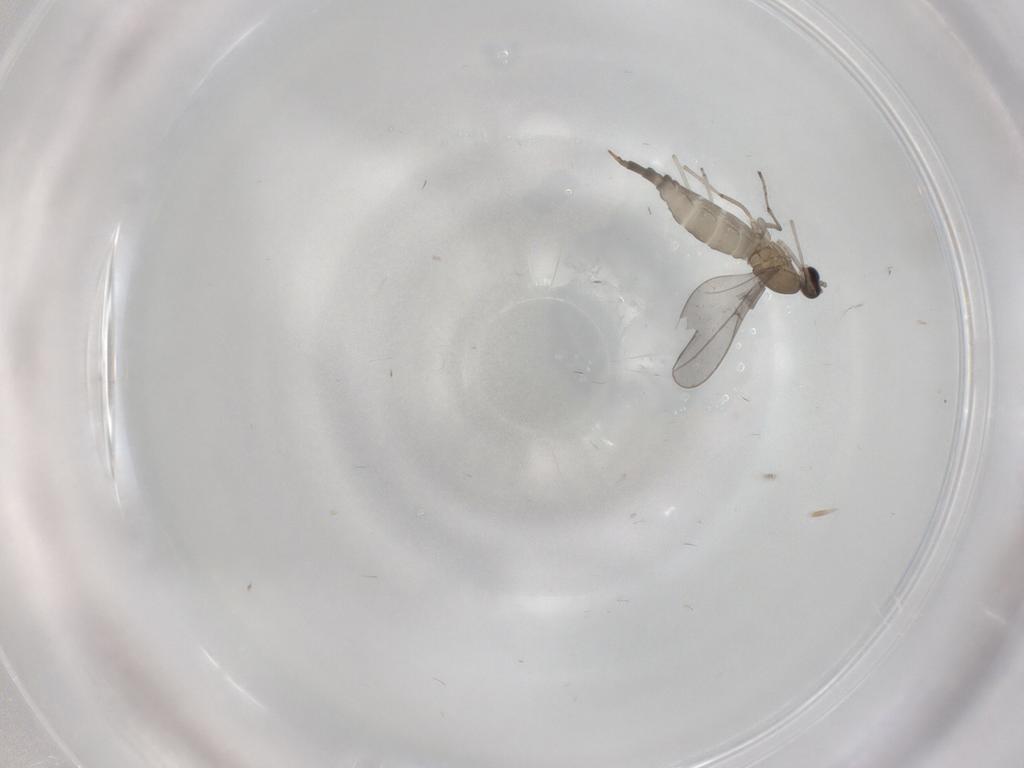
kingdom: Animalia
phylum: Arthropoda
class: Insecta
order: Diptera
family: Cecidomyiidae
